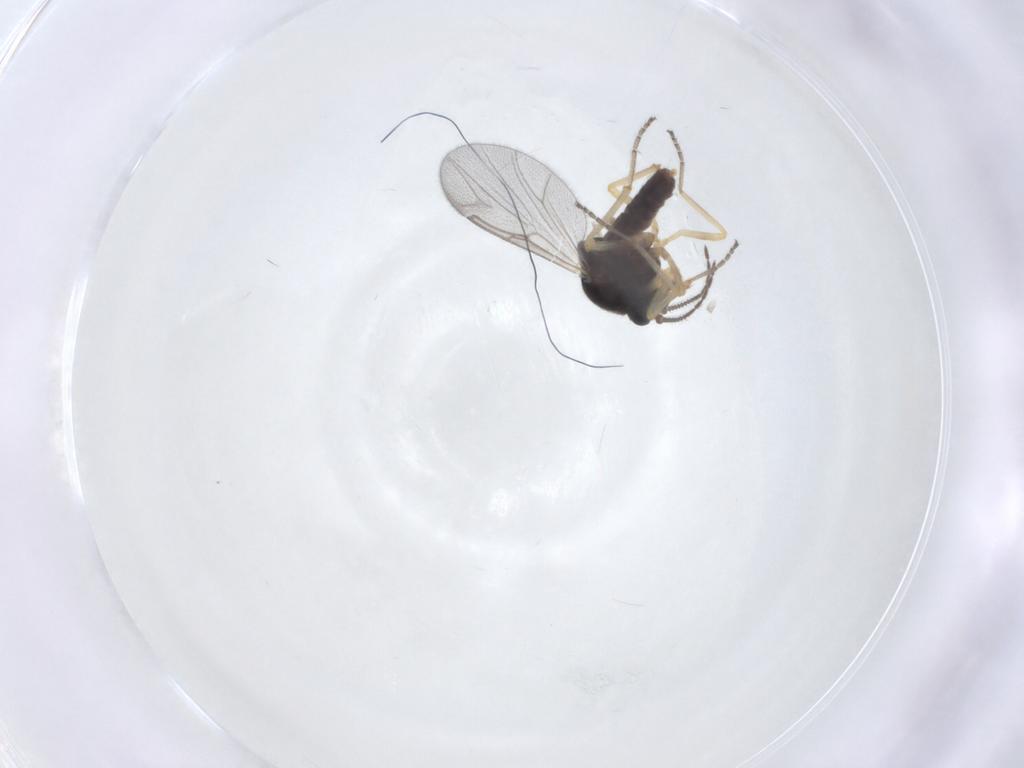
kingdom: Animalia
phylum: Arthropoda
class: Insecta
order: Diptera
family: Ceratopogonidae
